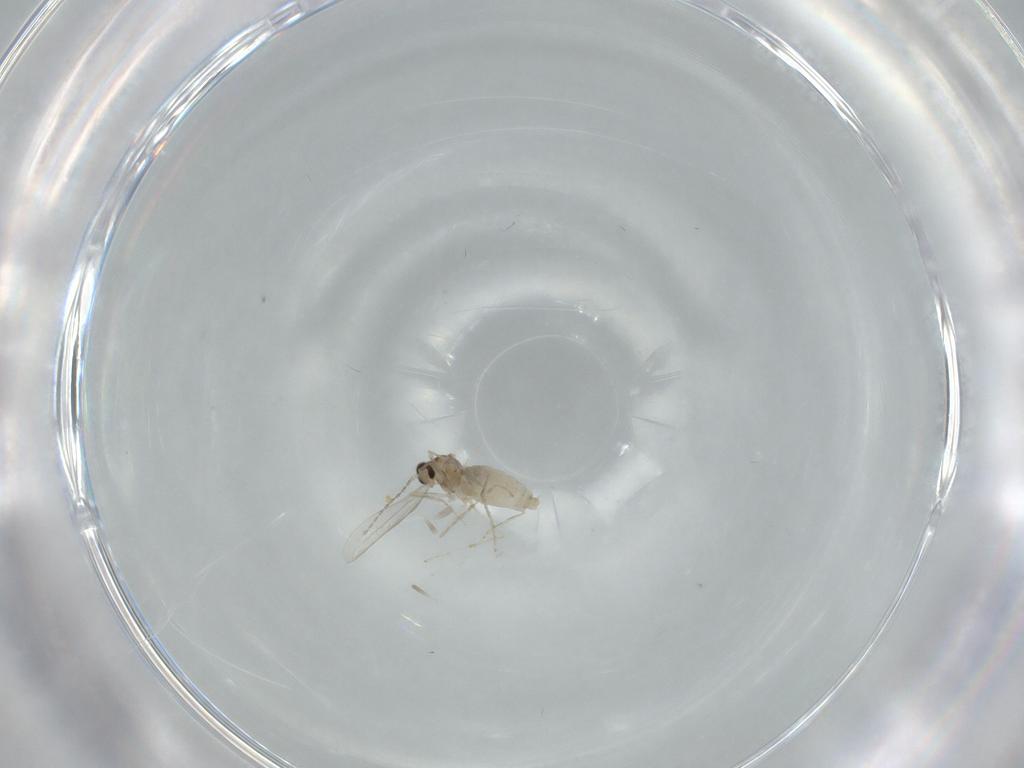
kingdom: Animalia
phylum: Arthropoda
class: Insecta
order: Diptera
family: Cecidomyiidae
